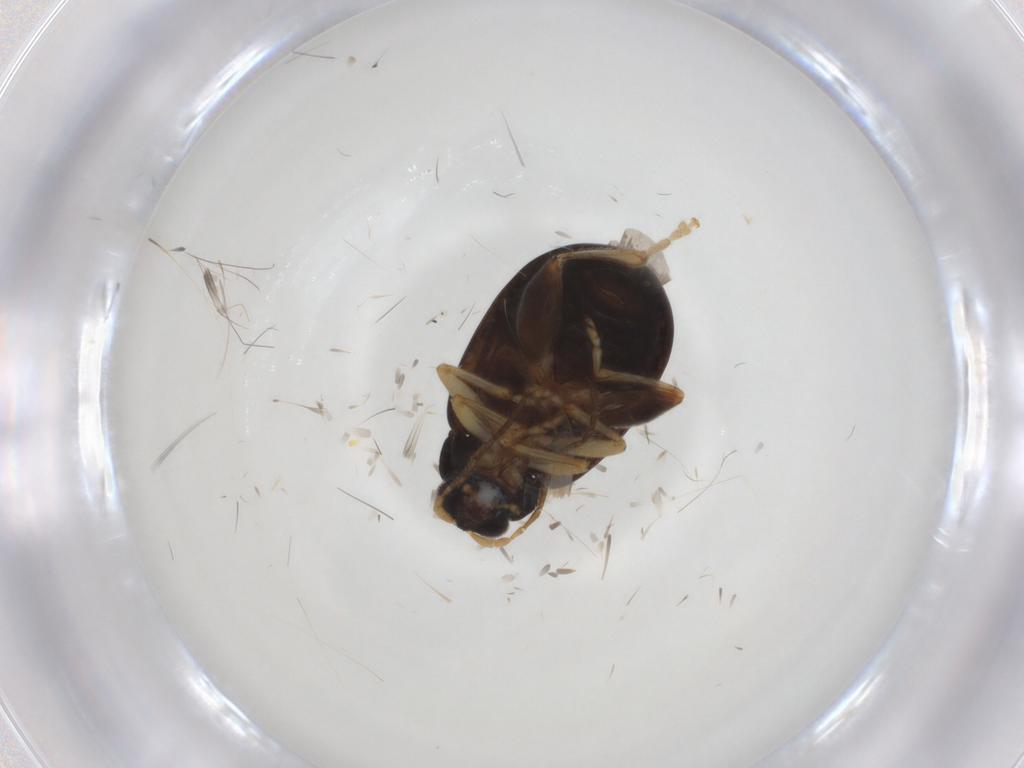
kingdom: Animalia
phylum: Arthropoda
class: Insecta
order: Coleoptera
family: Chrysomelidae
